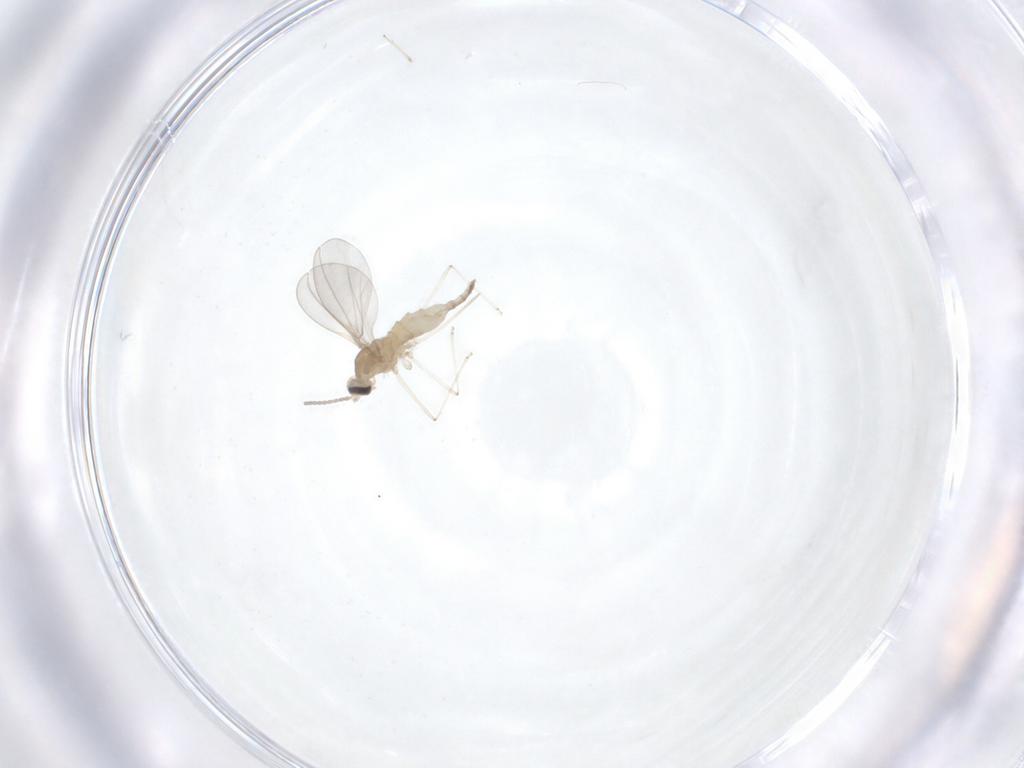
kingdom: Animalia
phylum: Arthropoda
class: Insecta
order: Diptera
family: Cecidomyiidae
